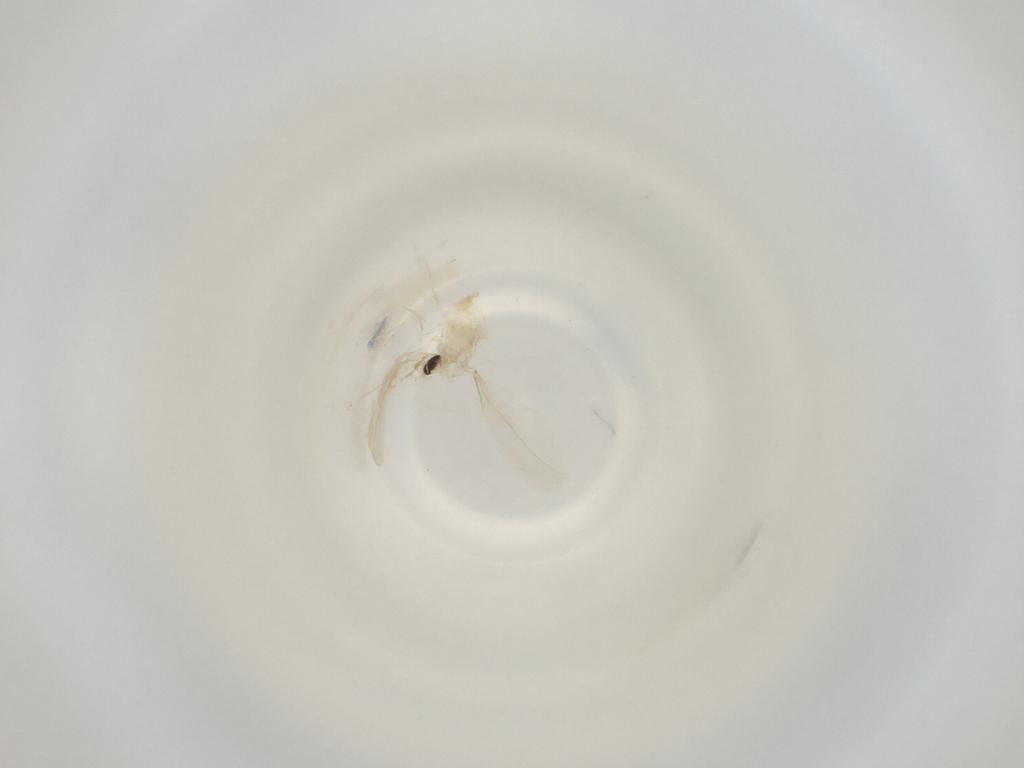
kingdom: Animalia
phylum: Arthropoda
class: Insecta
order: Diptera
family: Cecidomyiidae
